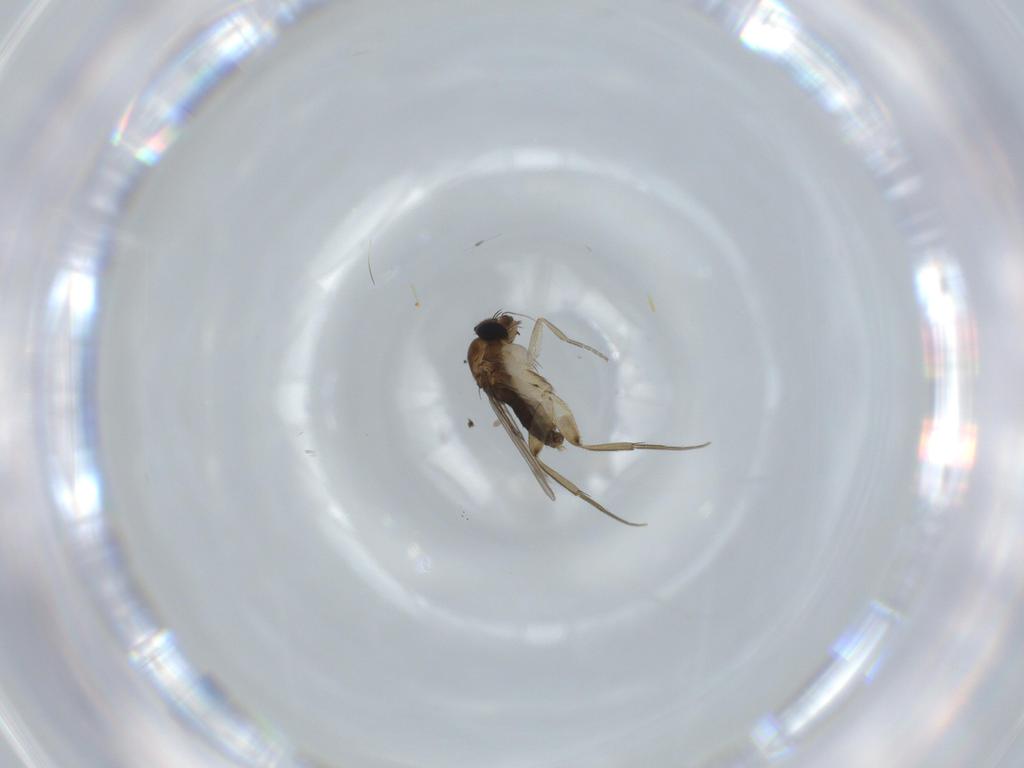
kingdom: Animalia
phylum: Arthropoda
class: Insecta
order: Diptera
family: Phoridae
